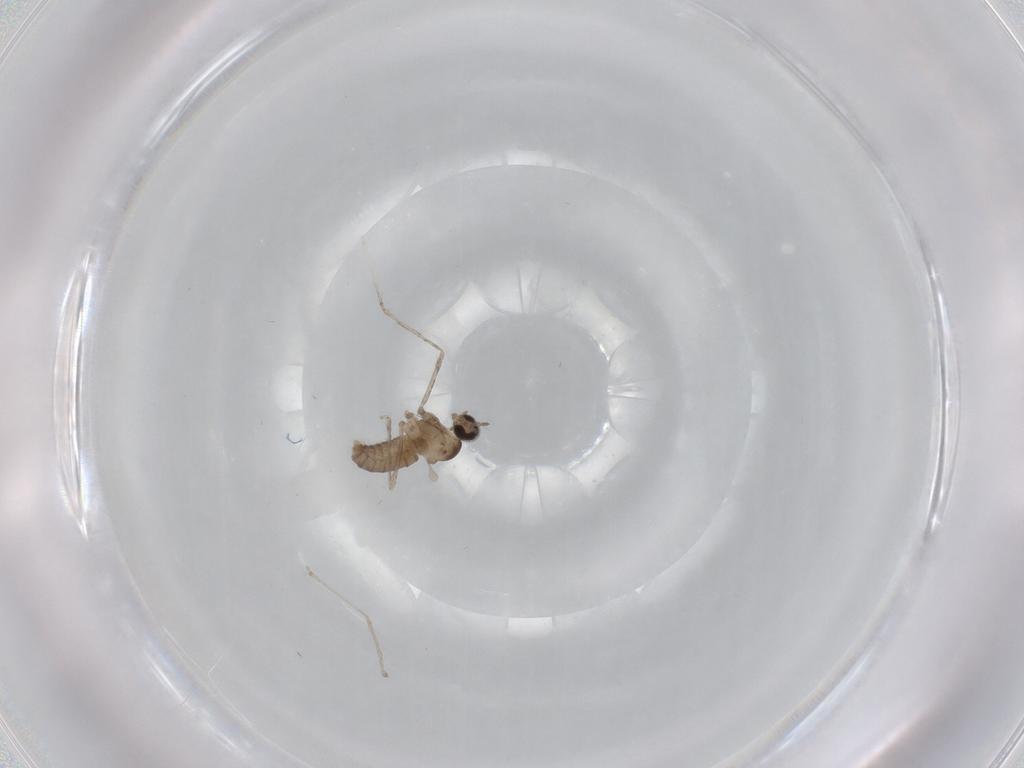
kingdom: Animalia
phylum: Arthropoda
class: Insecta
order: Diptera
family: Cecidomyiidae
